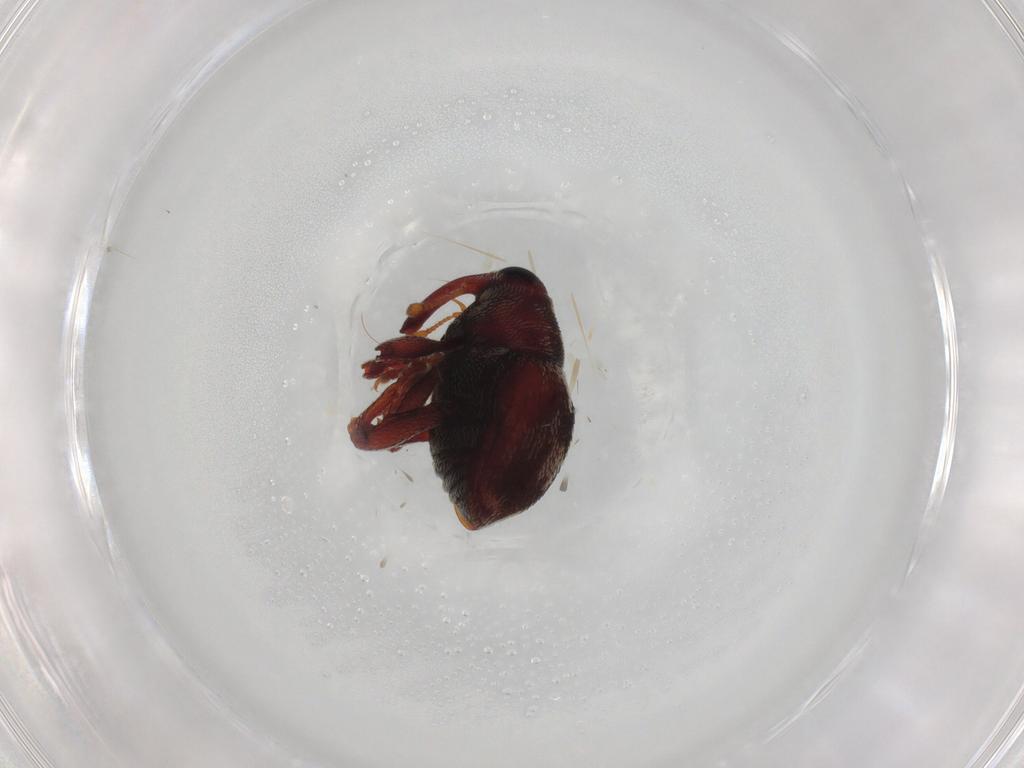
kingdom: Animalia
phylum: Arthropoda
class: Insecta
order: Coleoptera
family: Curculionidae
